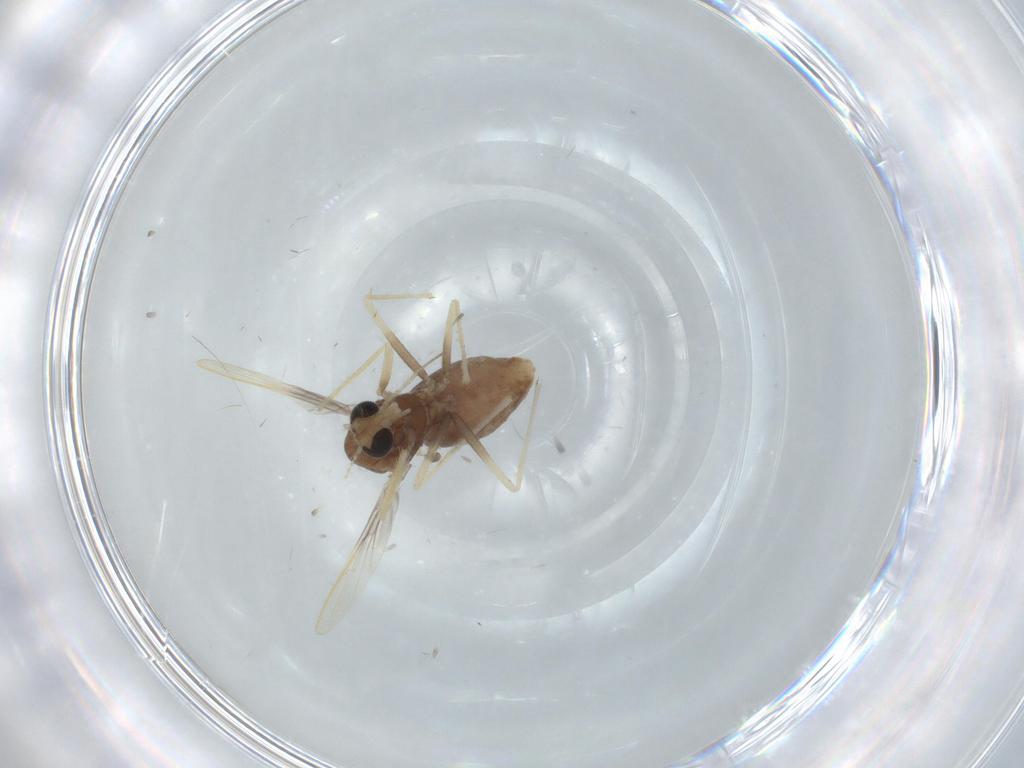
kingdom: Animalia
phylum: Arthropoda
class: Insecta
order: Diptera
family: Chironomidae
